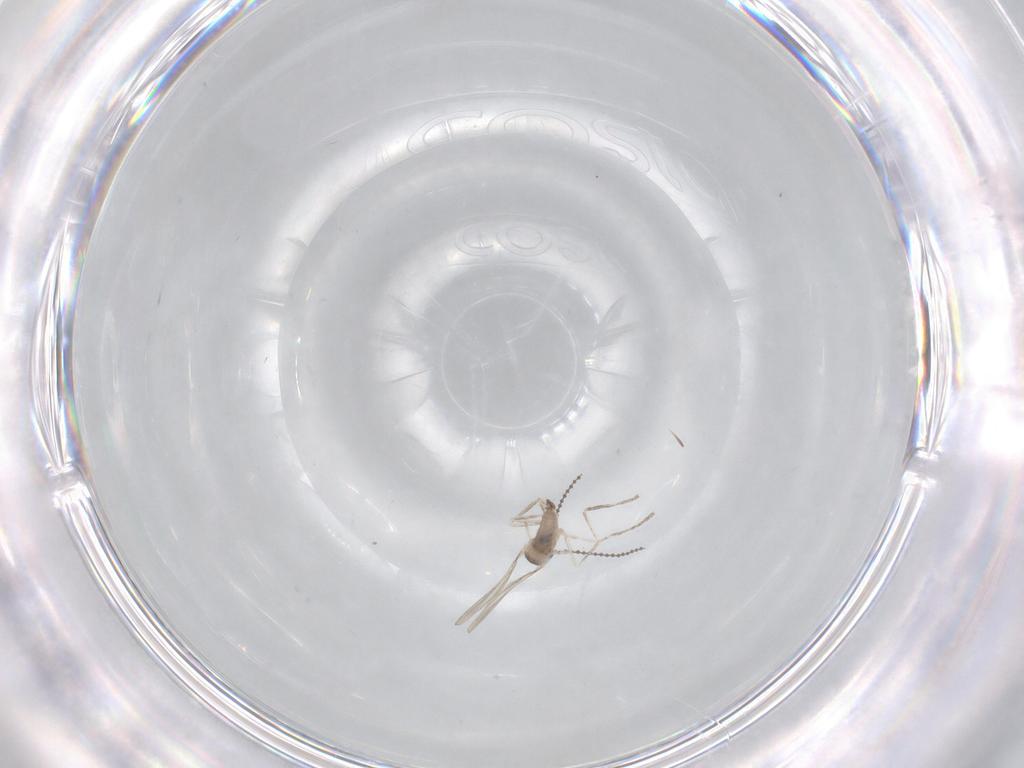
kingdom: Animalia
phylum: Arthropoda
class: Insecta
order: Diptera
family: Cecidomyiidae
